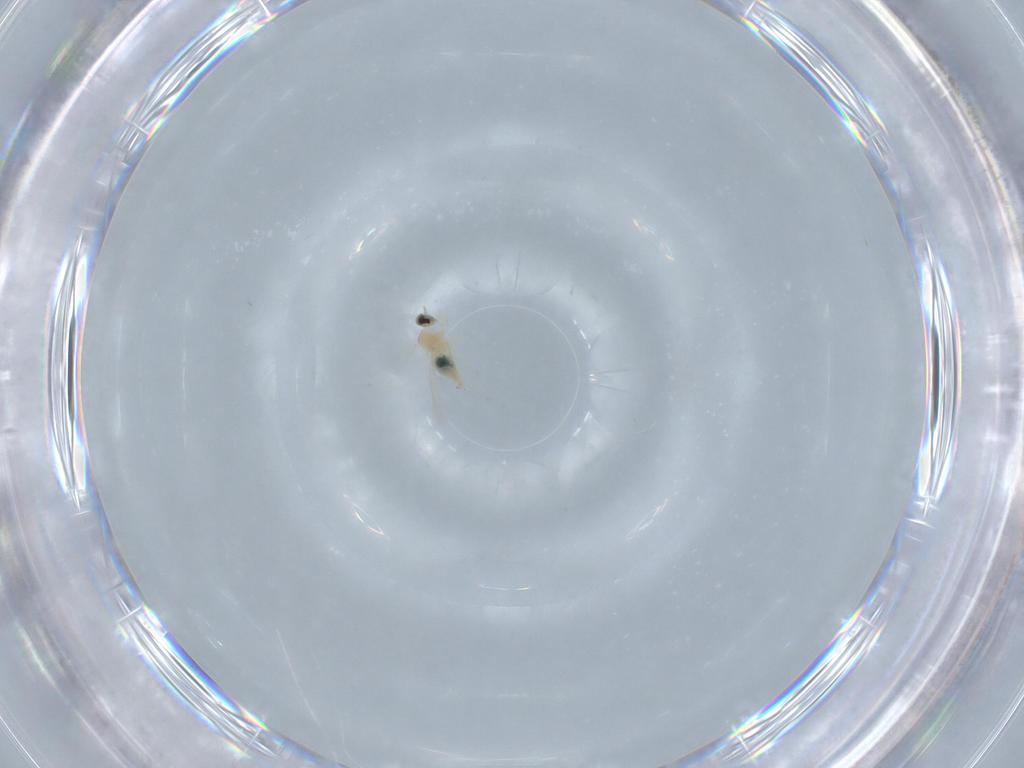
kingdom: Animalia
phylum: Arthropoda
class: Insecta
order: Diptera
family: Cecidomyiidae
